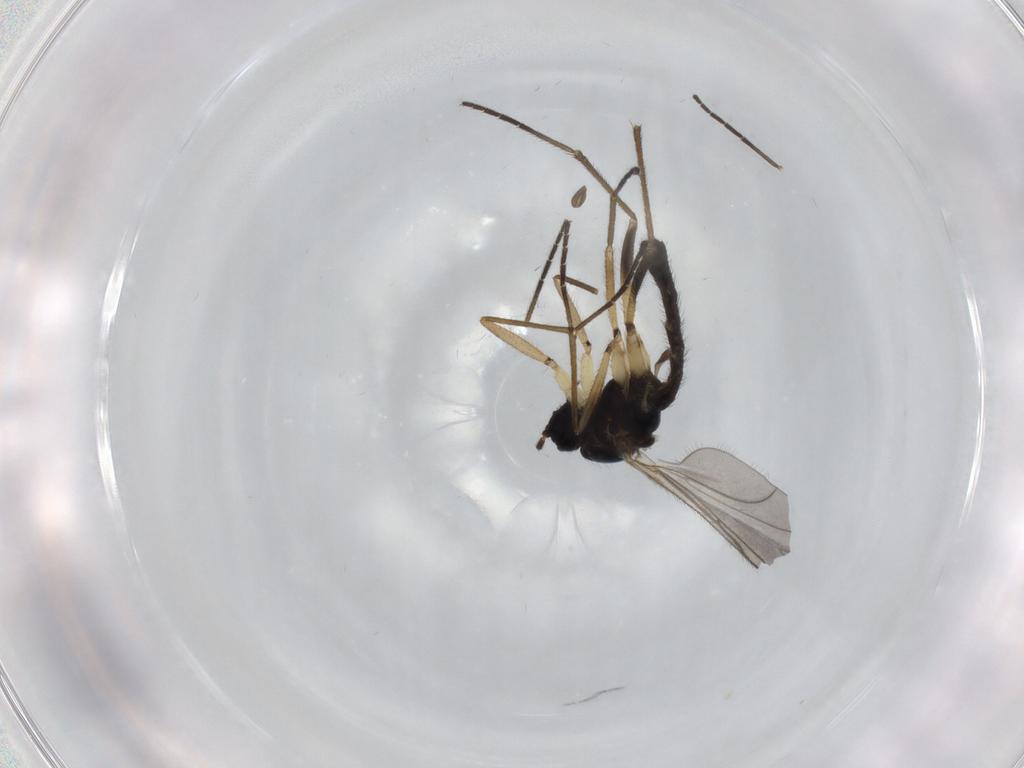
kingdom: Animalia
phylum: Arthropoda
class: Insecta
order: Diptera
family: Sciaridae
